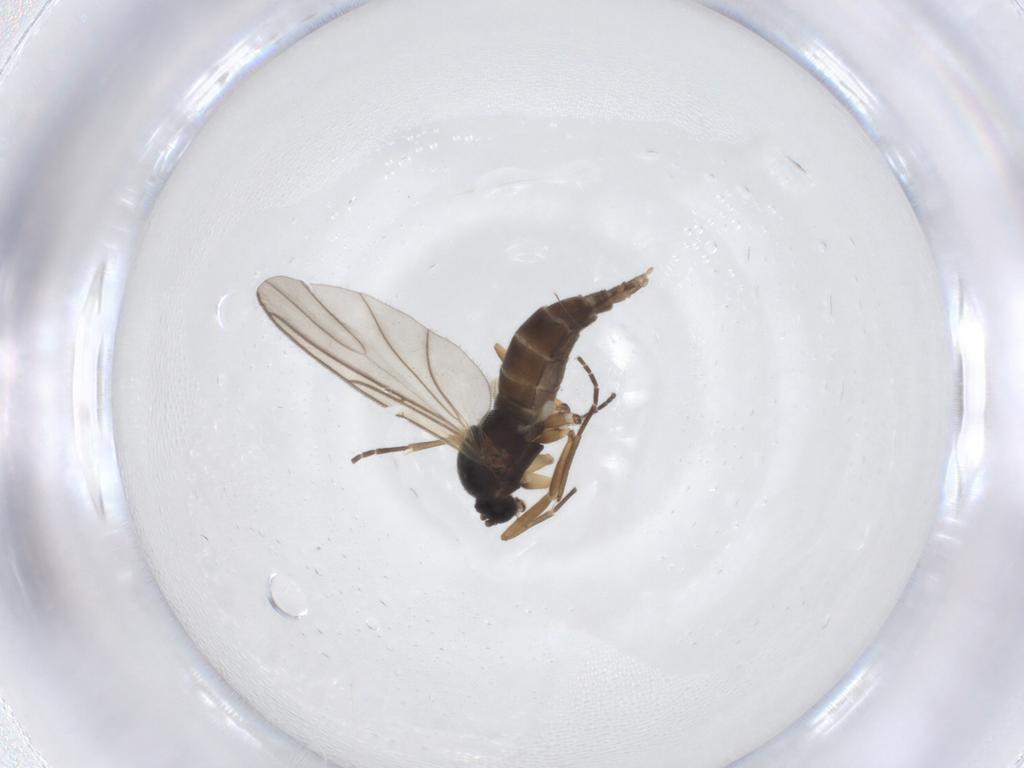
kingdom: Animalia
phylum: Arthropoda
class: Insecta
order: Diptera
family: Sciaridae
